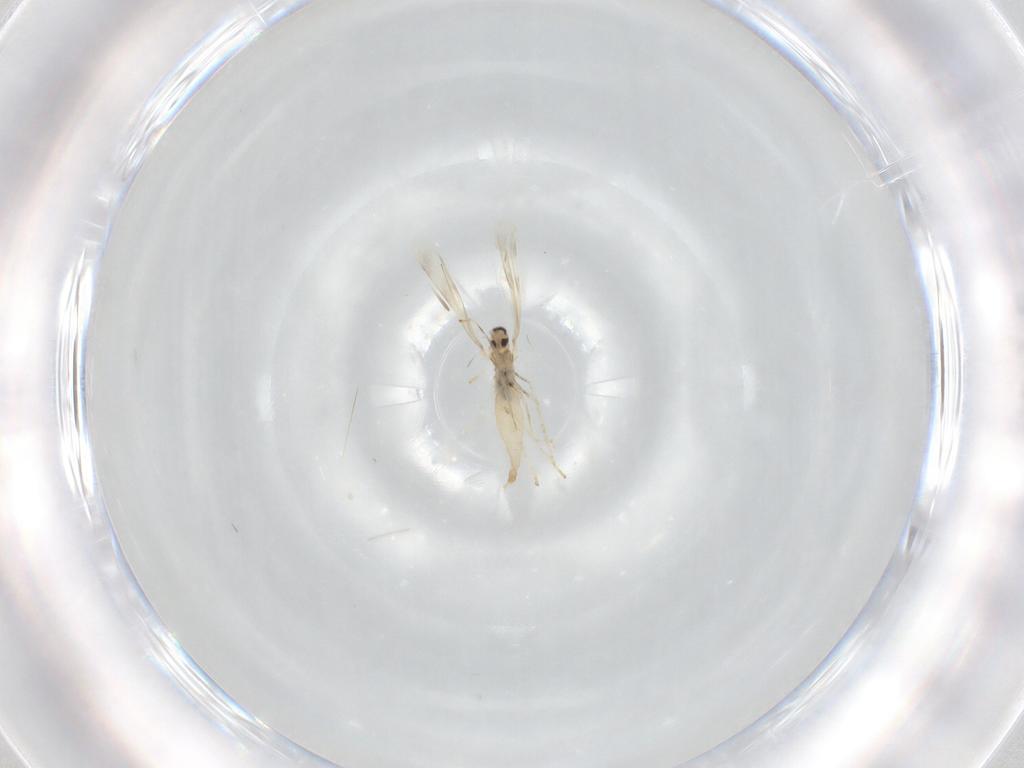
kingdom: Animalia
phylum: Arthropoda
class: Insecta
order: Diptera
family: Cecidomyiidae
